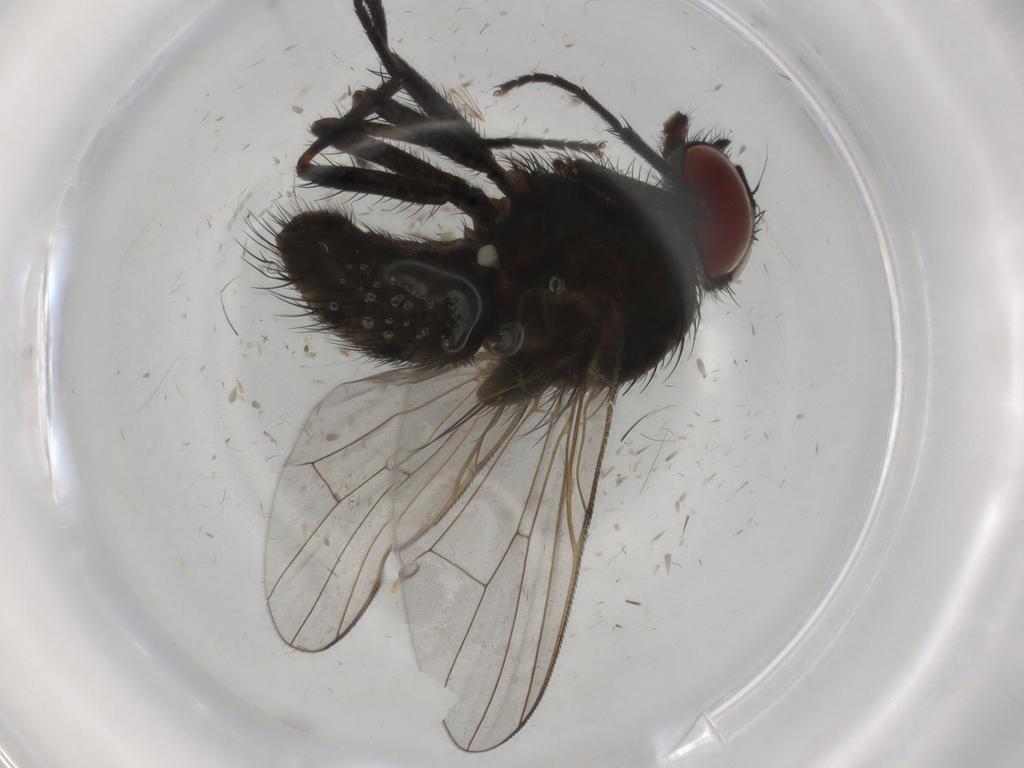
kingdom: Animalia
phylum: Arthropoda
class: Insecta
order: Diptera
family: Muscidae
